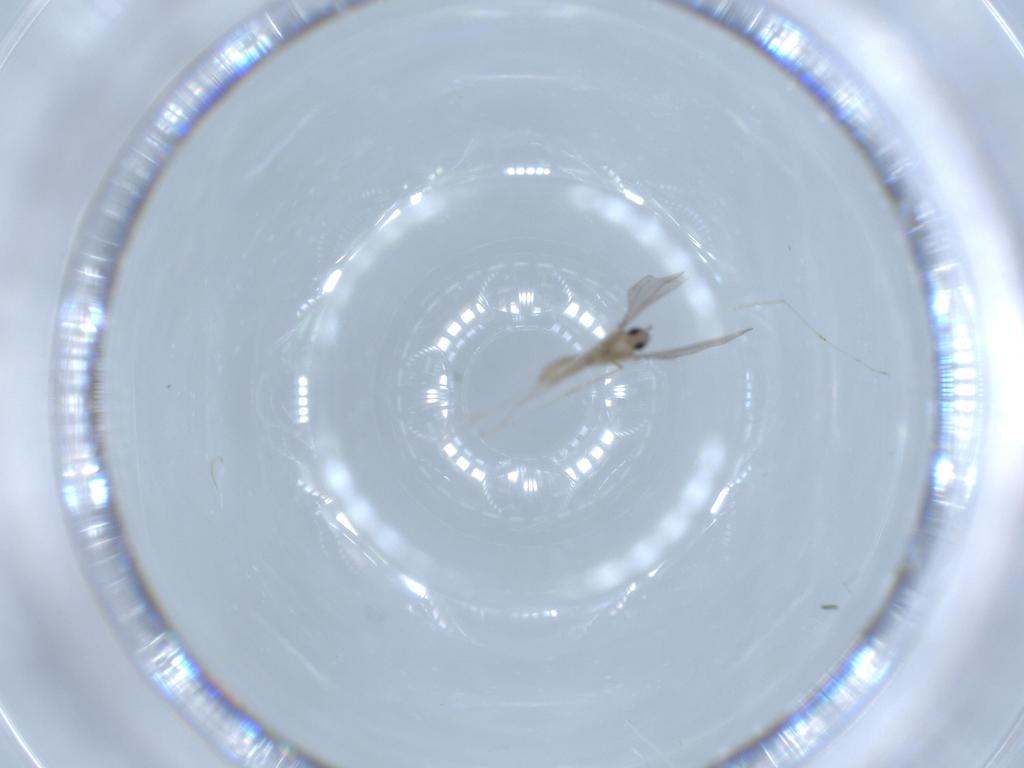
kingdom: Animalia
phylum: Arthropoda
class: Insecta
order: Diptera
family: Cecidomyiidae
